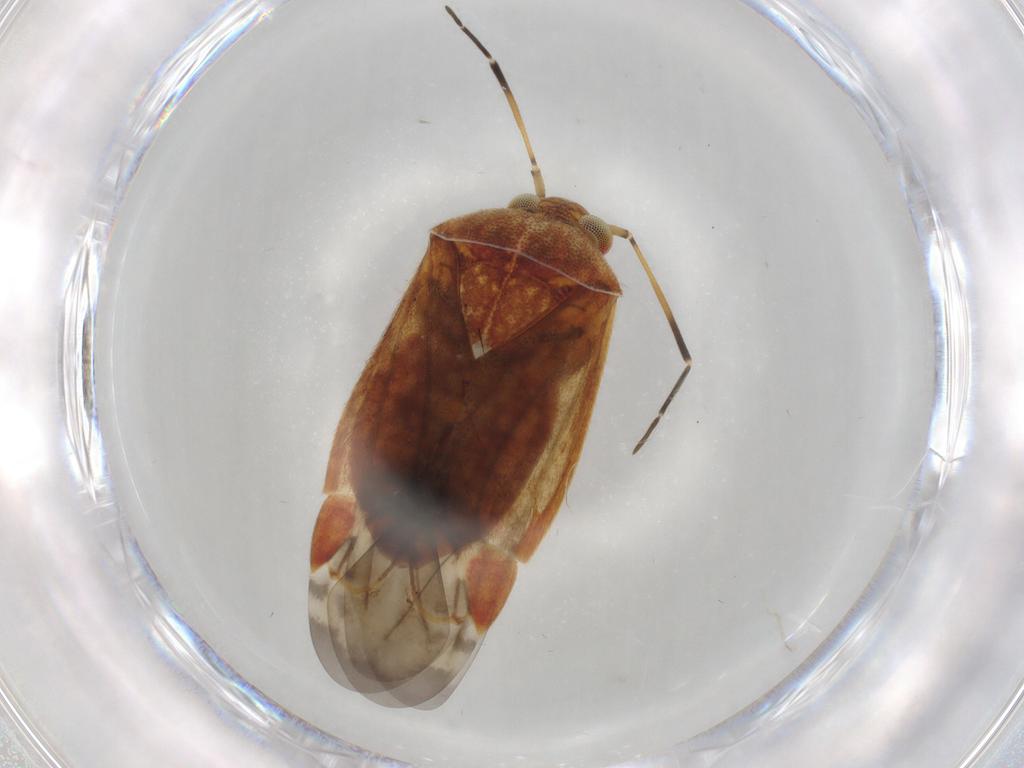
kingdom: Animalia
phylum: Arthropoda
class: Insecta
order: Hemiptera
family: Miridae
